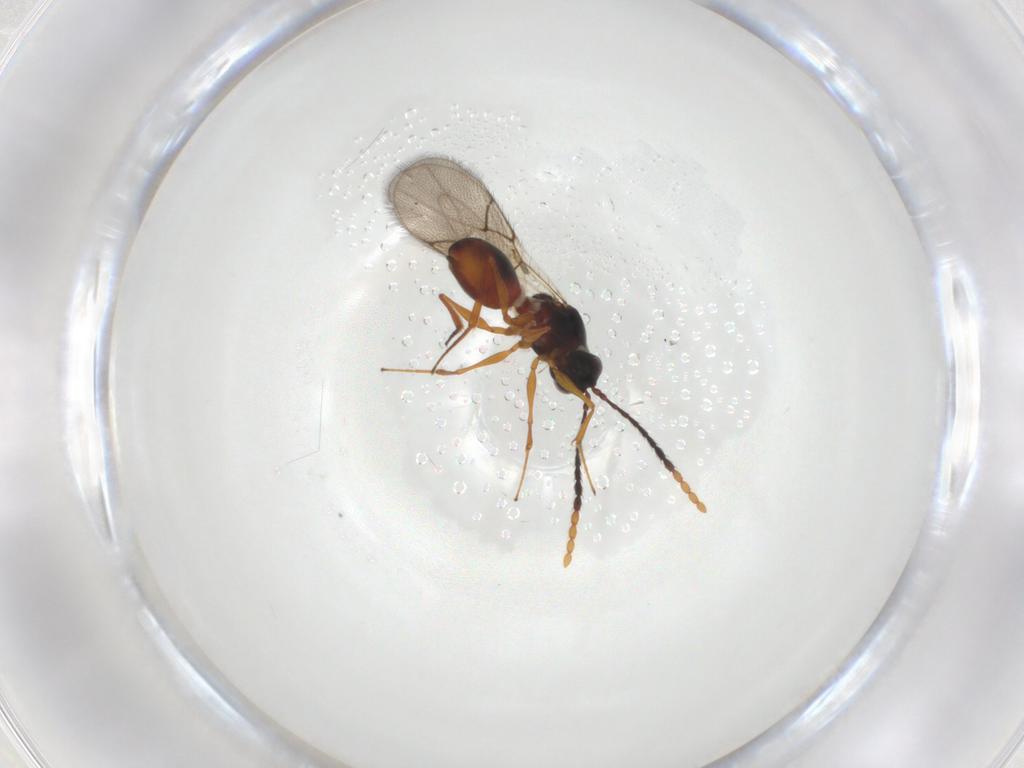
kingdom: Animalia
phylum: Arthropoda
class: Insecta
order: Hymenoptera
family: Figitidae
